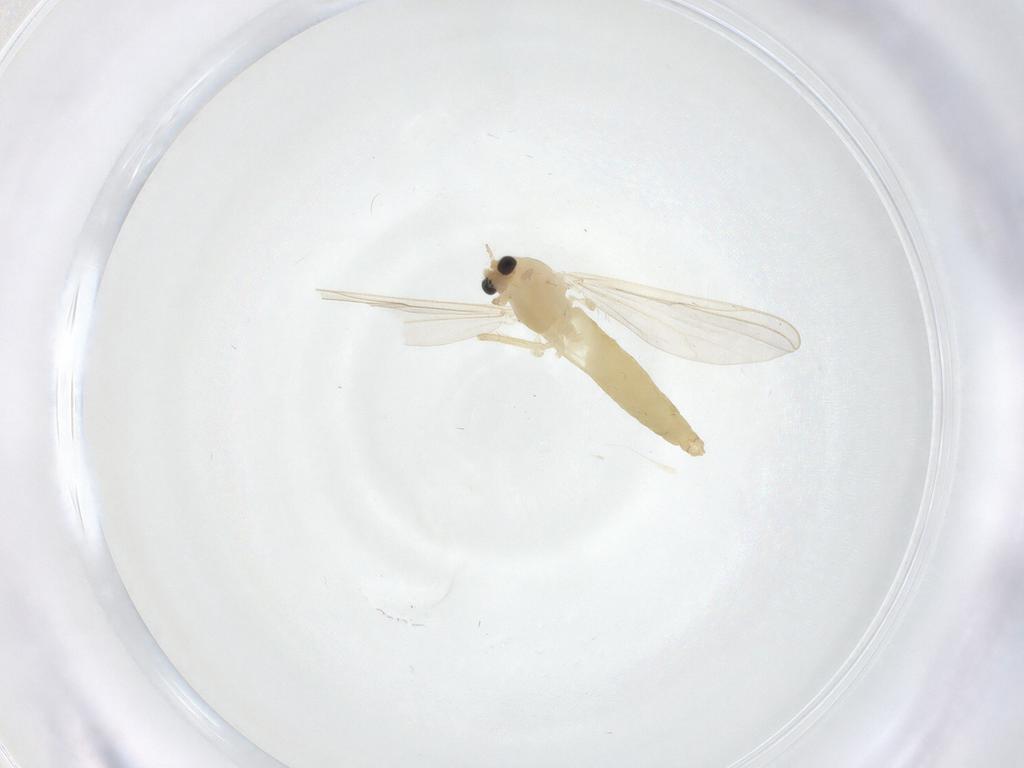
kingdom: Animalia
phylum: Arthropoda
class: Insecta
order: Diptera
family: Chironomidae
